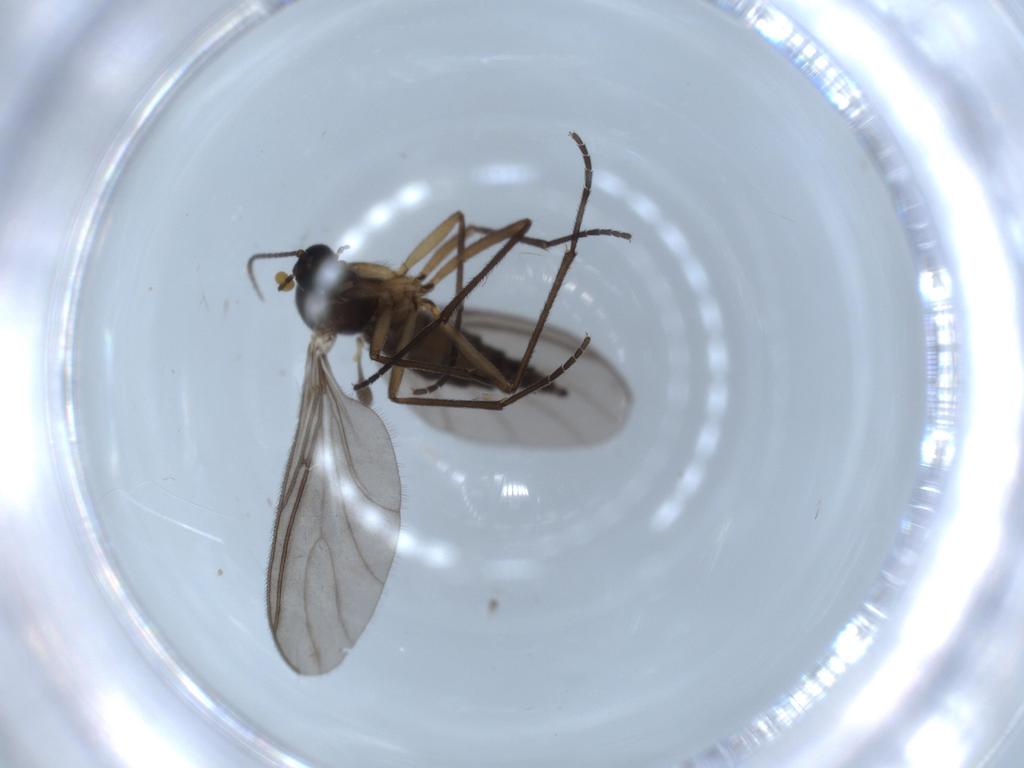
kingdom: Animalia
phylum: Arthropoda
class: Insecta
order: Diptera
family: Sciaridae
